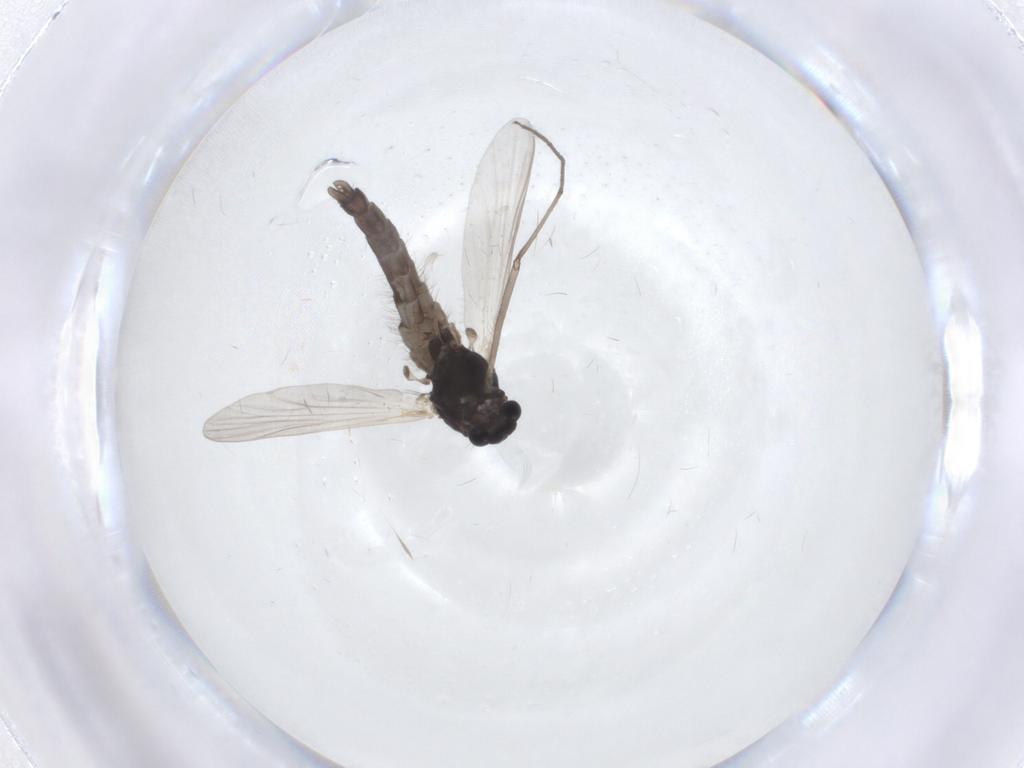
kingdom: Animalia
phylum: Arthropoda
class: Insecta
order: Diptera
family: Chironomidae
